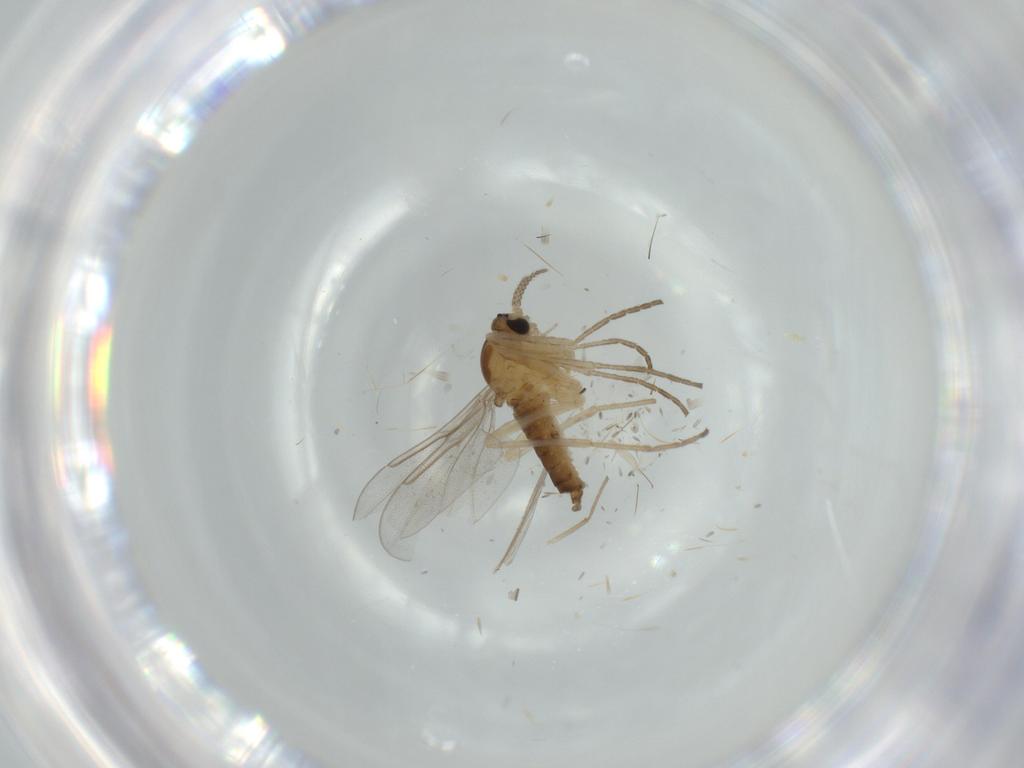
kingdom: Animalia
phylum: Arthropoda
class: Insecta
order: Diptera
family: Cecidomyiidae
